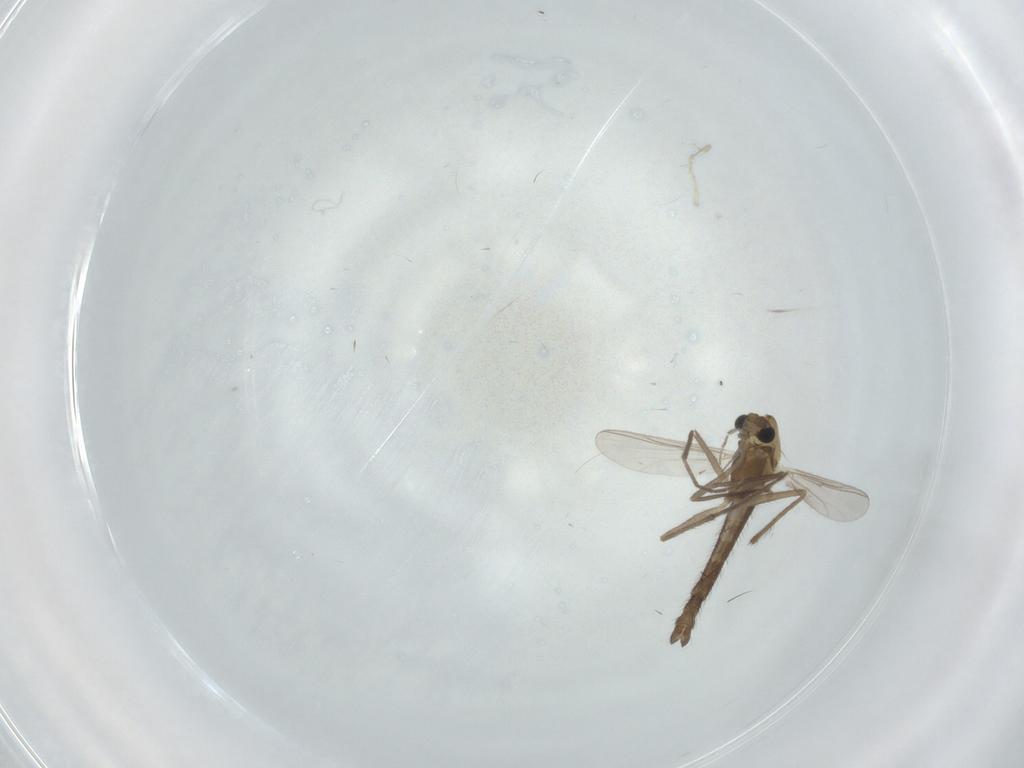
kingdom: Animalia
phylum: Arthropoda
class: Insecta
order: Diptera
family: Chironomidae
